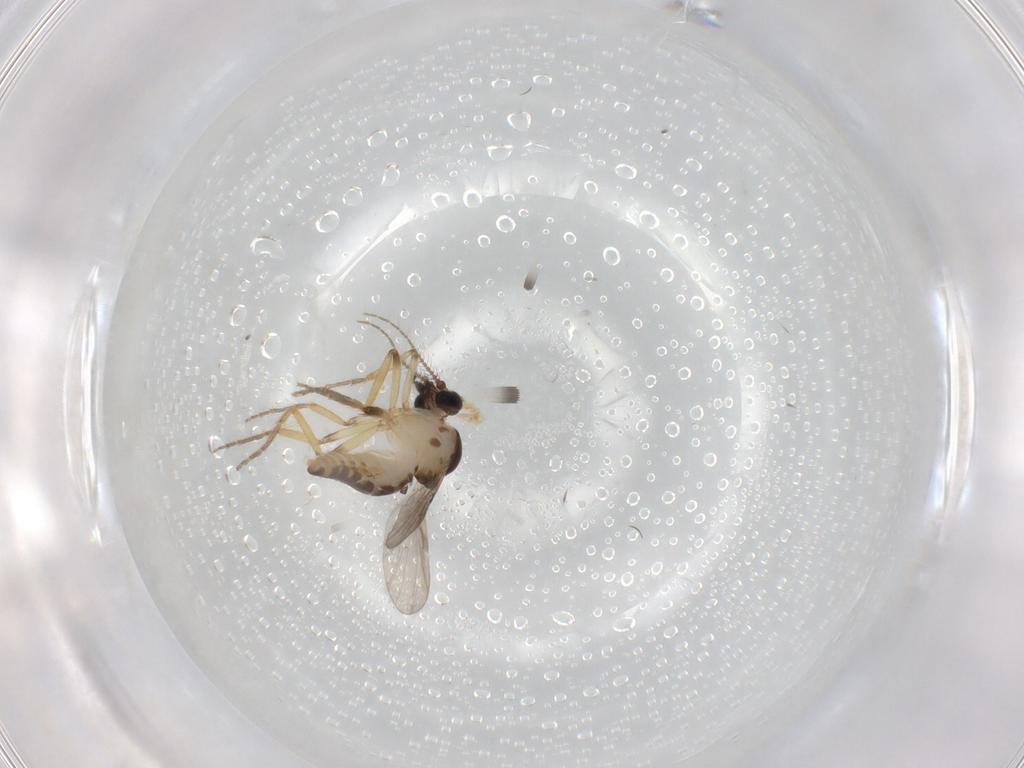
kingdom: Animalia
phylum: Arthropoda
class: Insecta
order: Diptera
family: Ceratopogonidae
